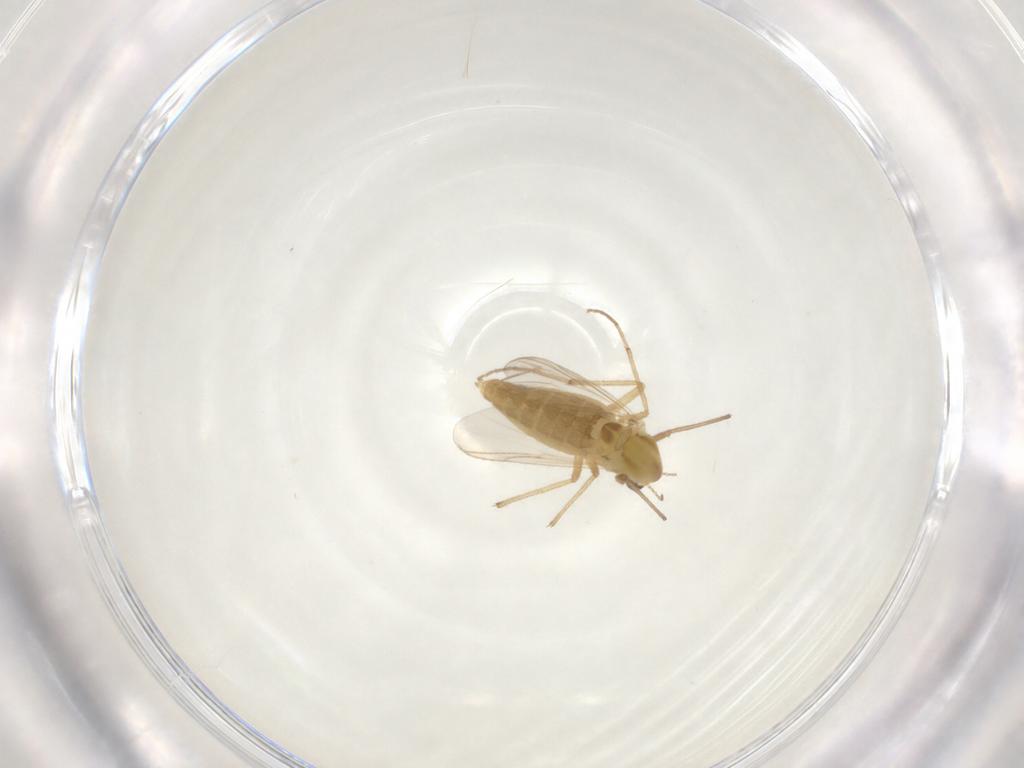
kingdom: Animalia
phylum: Arthropoda
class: Insecta
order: Diptera
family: Chironomidae
